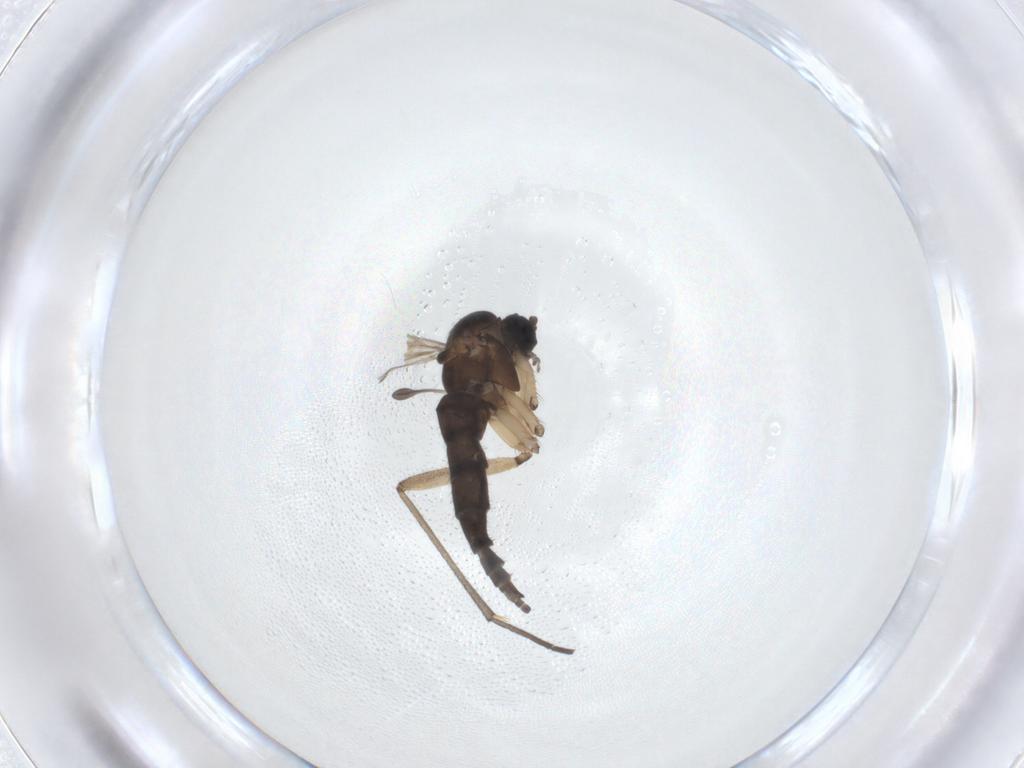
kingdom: Animalia
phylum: Arthropoda
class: Insecta
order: Diptera
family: Sciaridae
